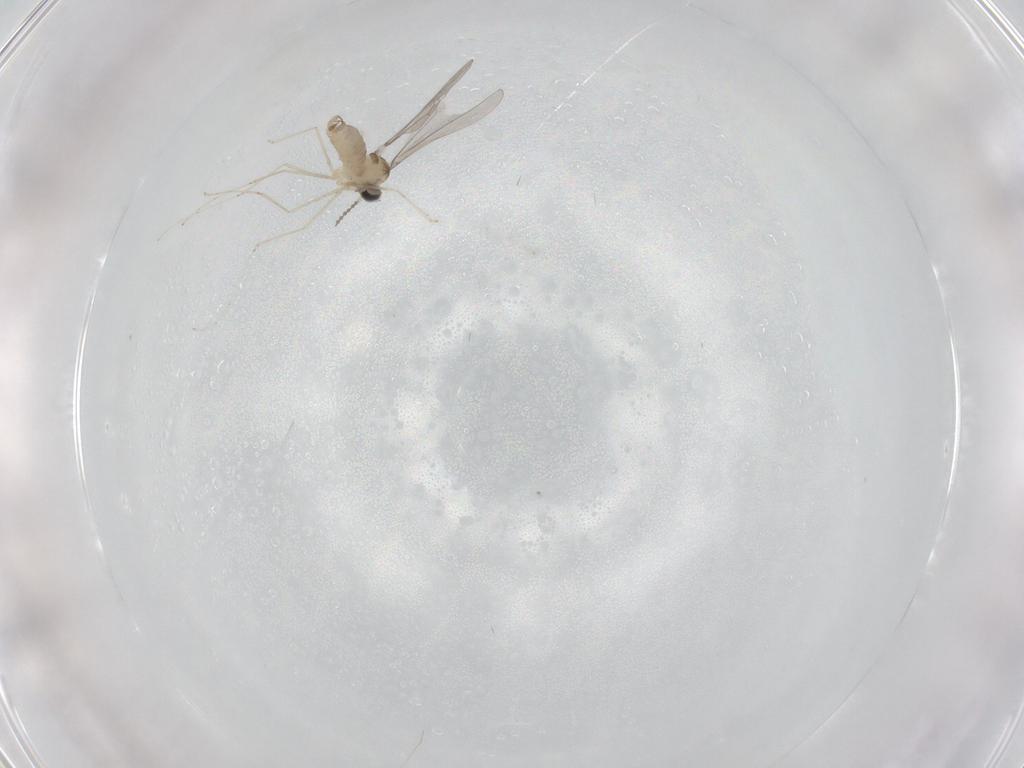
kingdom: Animalia
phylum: Arthropoda
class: Insecta
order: Diptera
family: Cecidomyiidae
